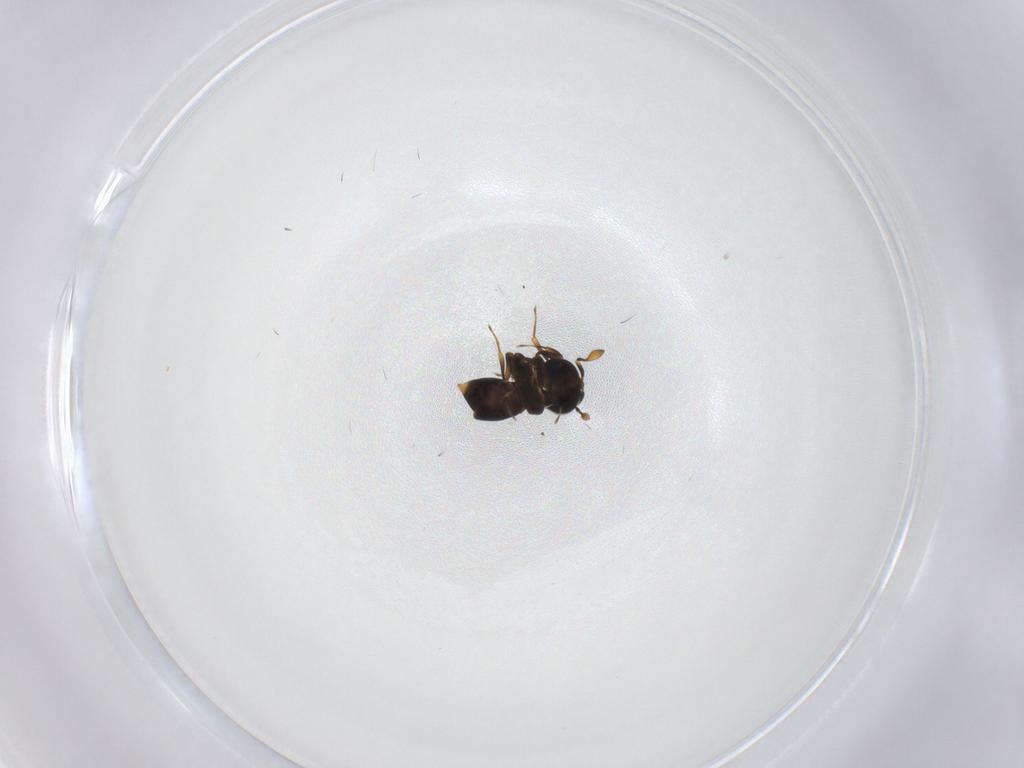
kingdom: Animalia
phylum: Arthropoda
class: Insecta
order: Hymenoptera
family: Scelionidae
